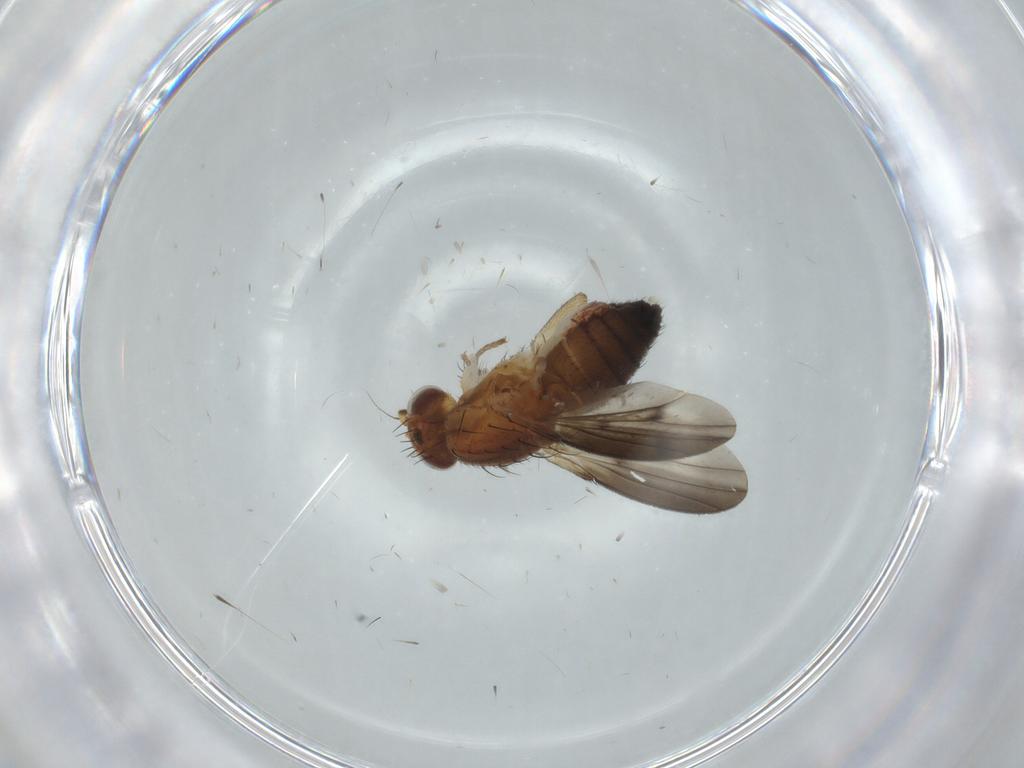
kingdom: Animalia
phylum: Arthropoda
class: Insecta
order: Diptera
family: Heleomyzidae
